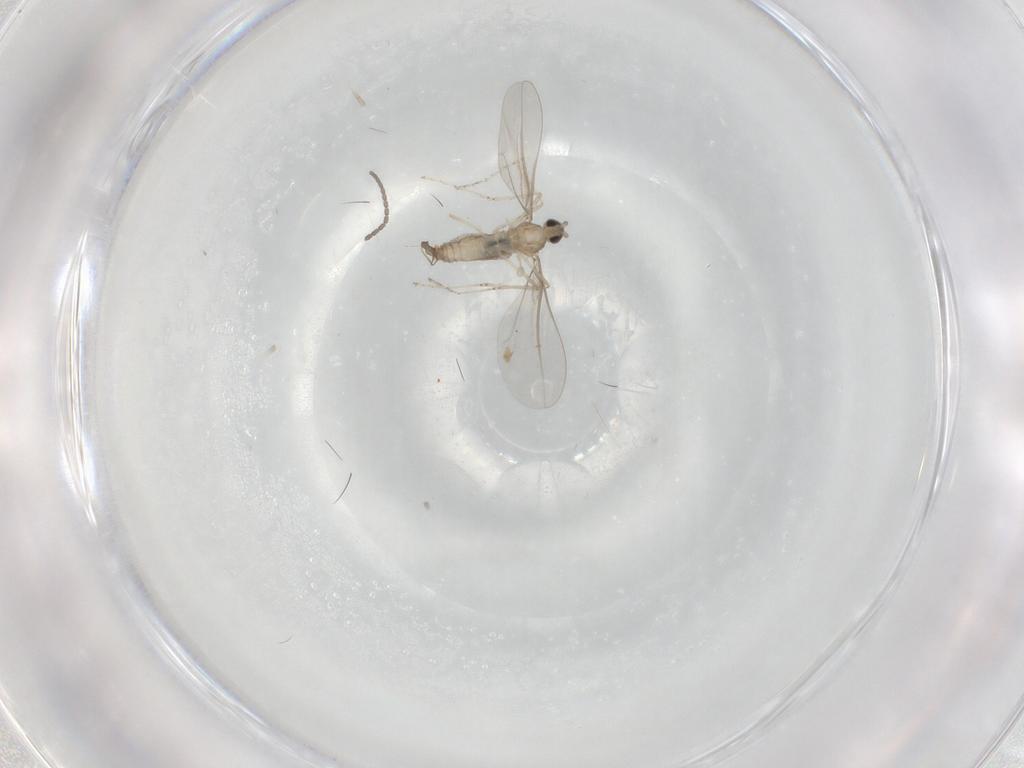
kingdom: Animalia
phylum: Arthropoda
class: Insecta
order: Diptera
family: Cecidomyiidae
